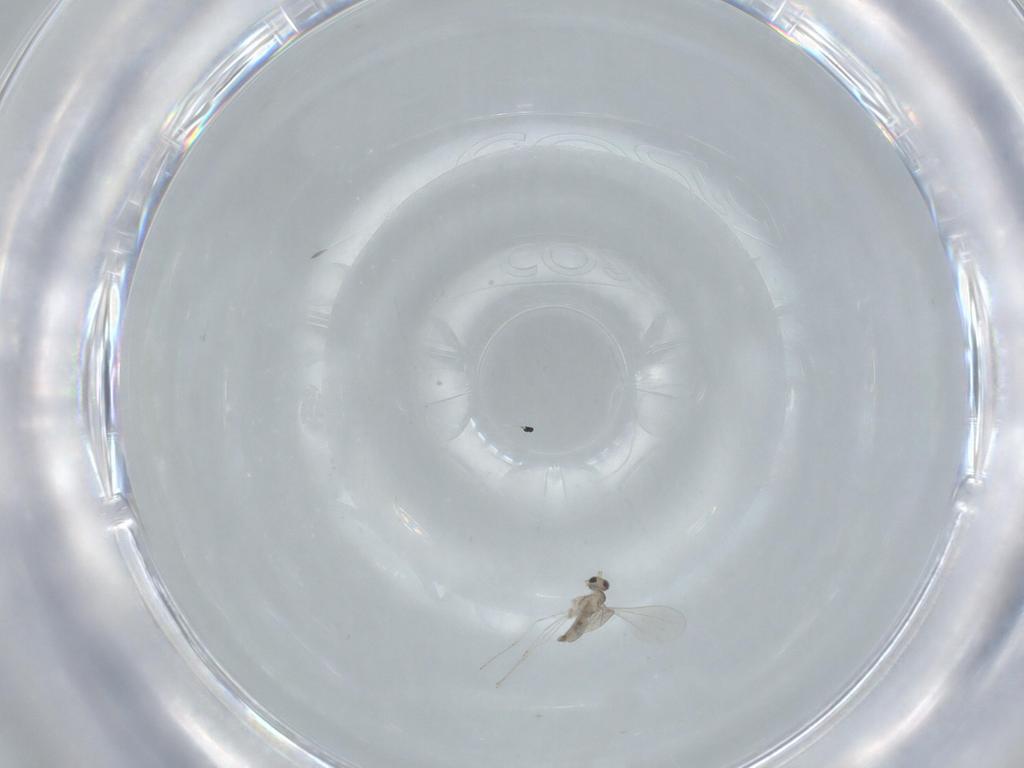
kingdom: Animalia
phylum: Arthropoda
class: Insecta
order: Diptera
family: Cecidomyiidae
